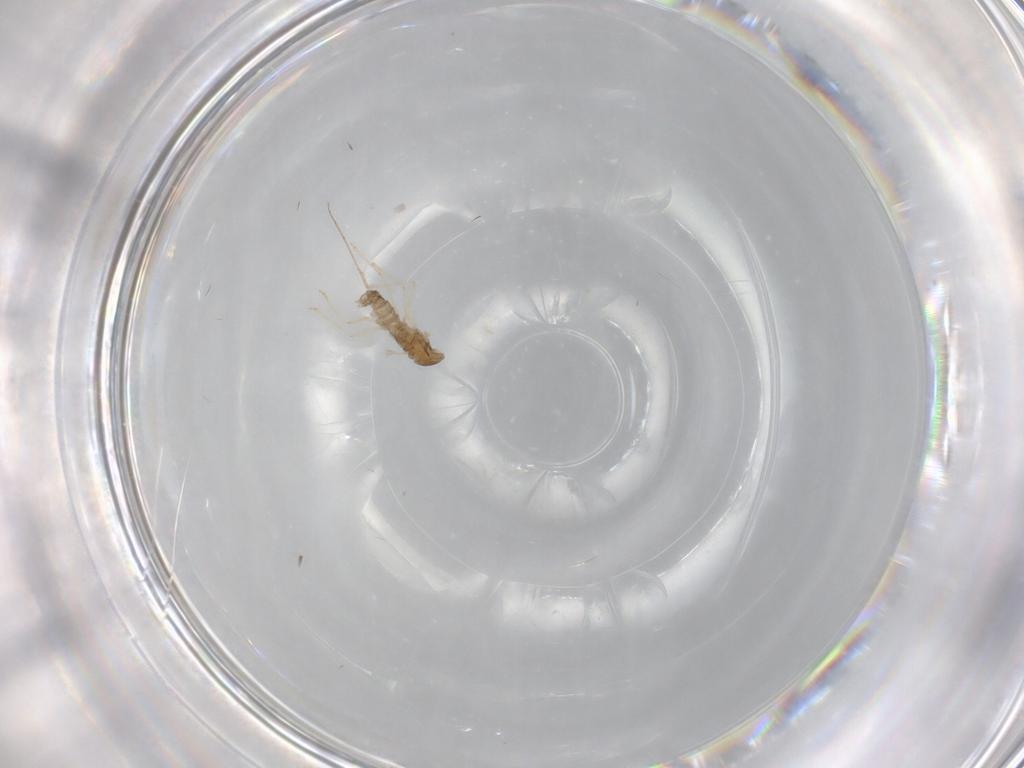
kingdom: Animalia
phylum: Arthropoda
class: Insecta
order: Diptera
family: Cecidomyiidae
